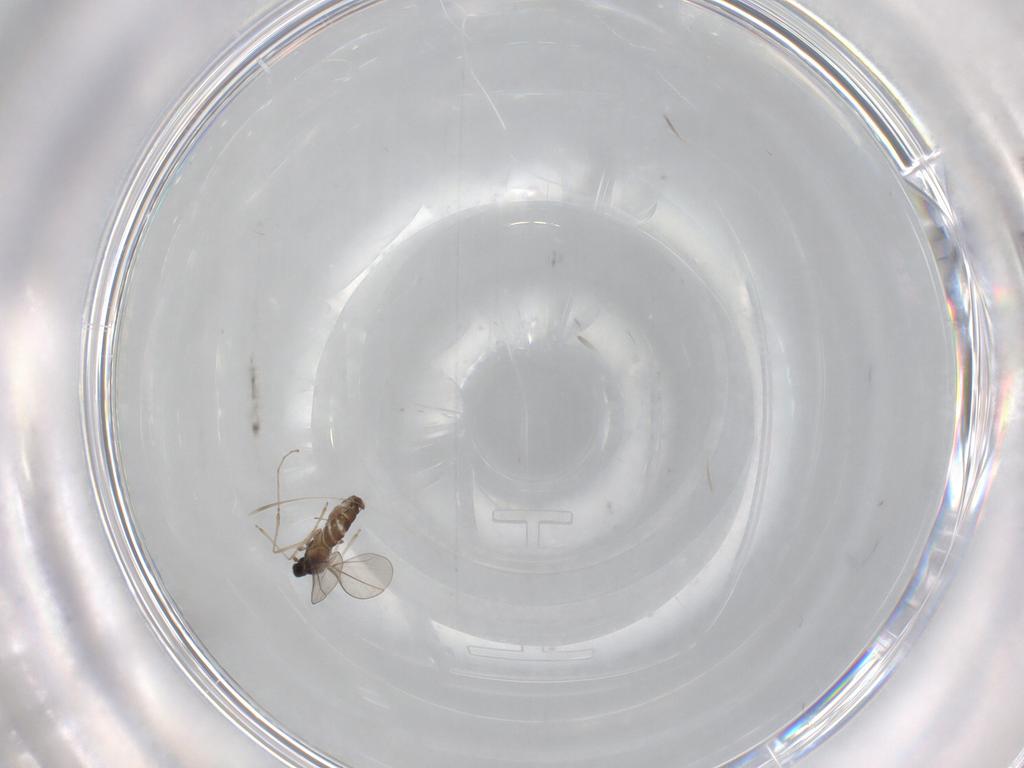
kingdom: Animalia
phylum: Arthropoda
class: Insecta
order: Diptera
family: Cecidomyiidae
